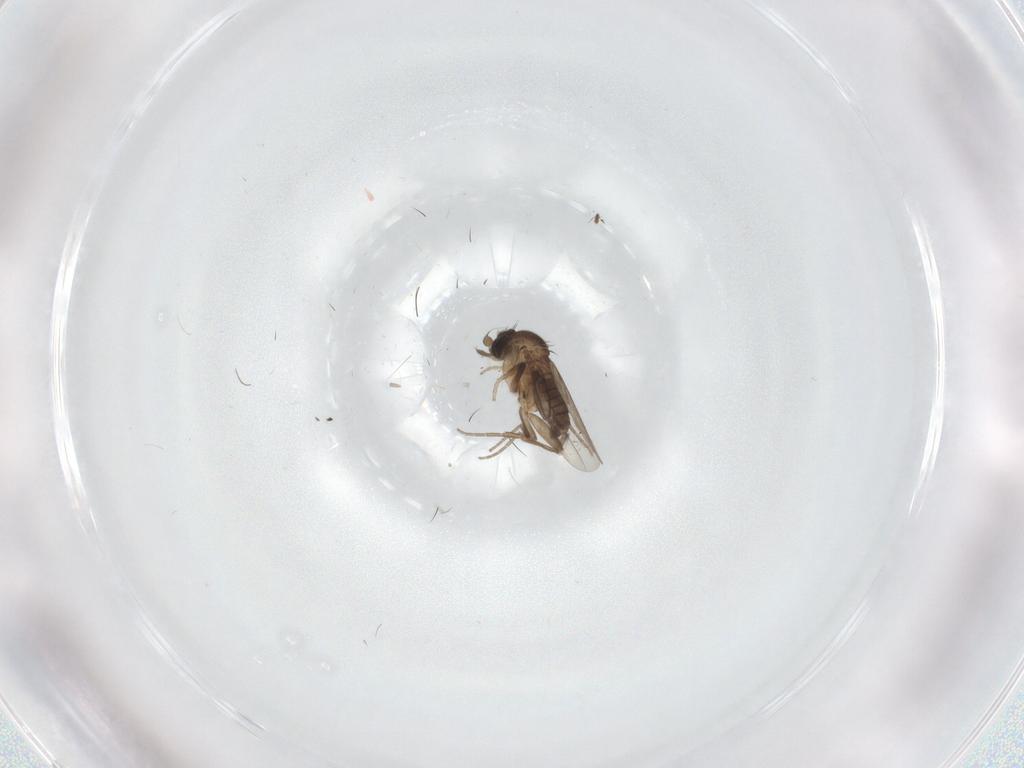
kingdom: Animalia
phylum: Arthropoda
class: Insecta
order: Diptera
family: Phoridae
